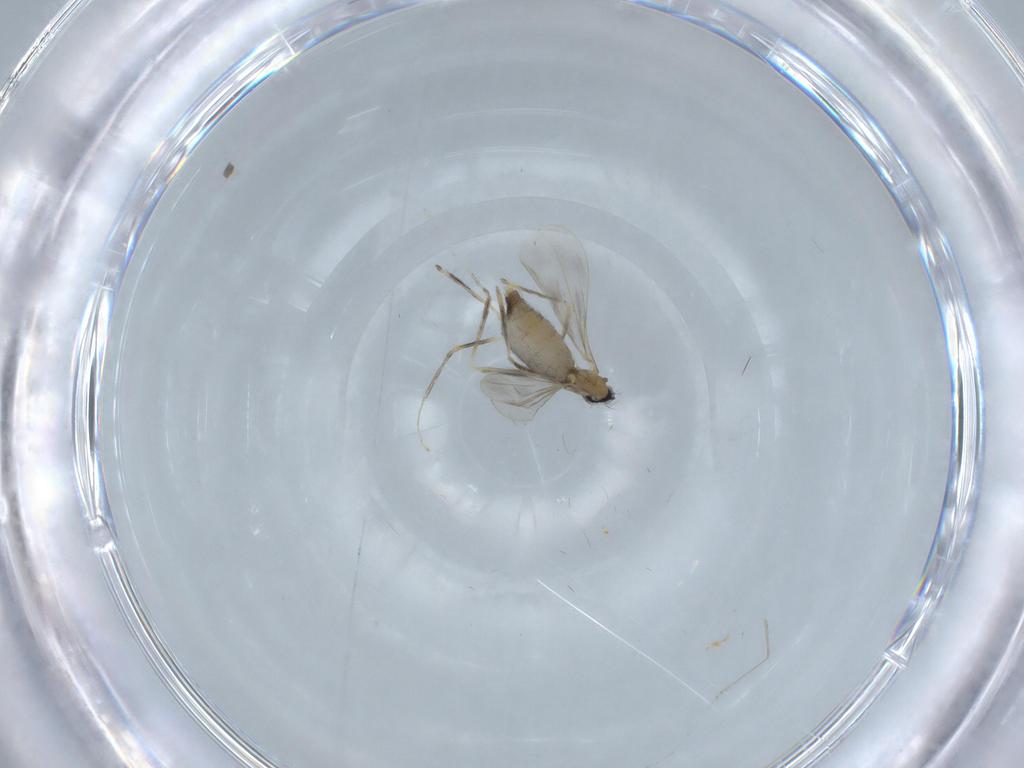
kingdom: Animalia
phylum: Arthropoda
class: Insecta
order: Diptera
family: Cecidomyiidae
